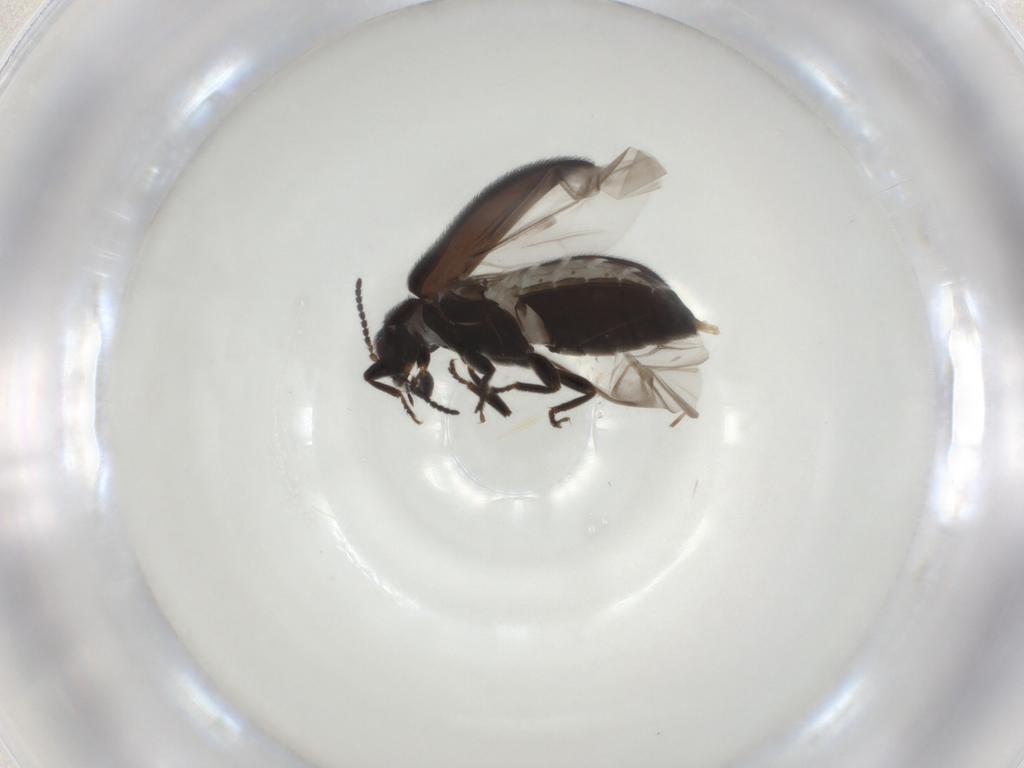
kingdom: Animalia
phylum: Arthropoda
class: Insecta
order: Coleoptera
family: Scirtidae
